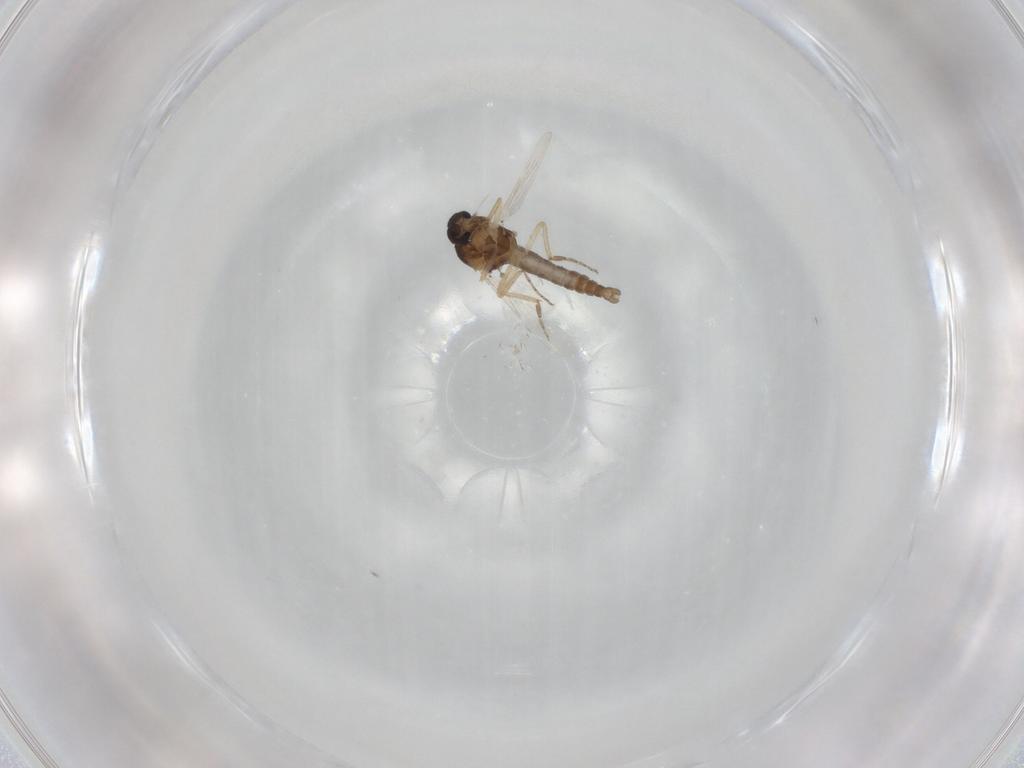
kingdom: Animalia
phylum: Arthropoda
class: Insecta
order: Diptera
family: Ceratopogonidae
